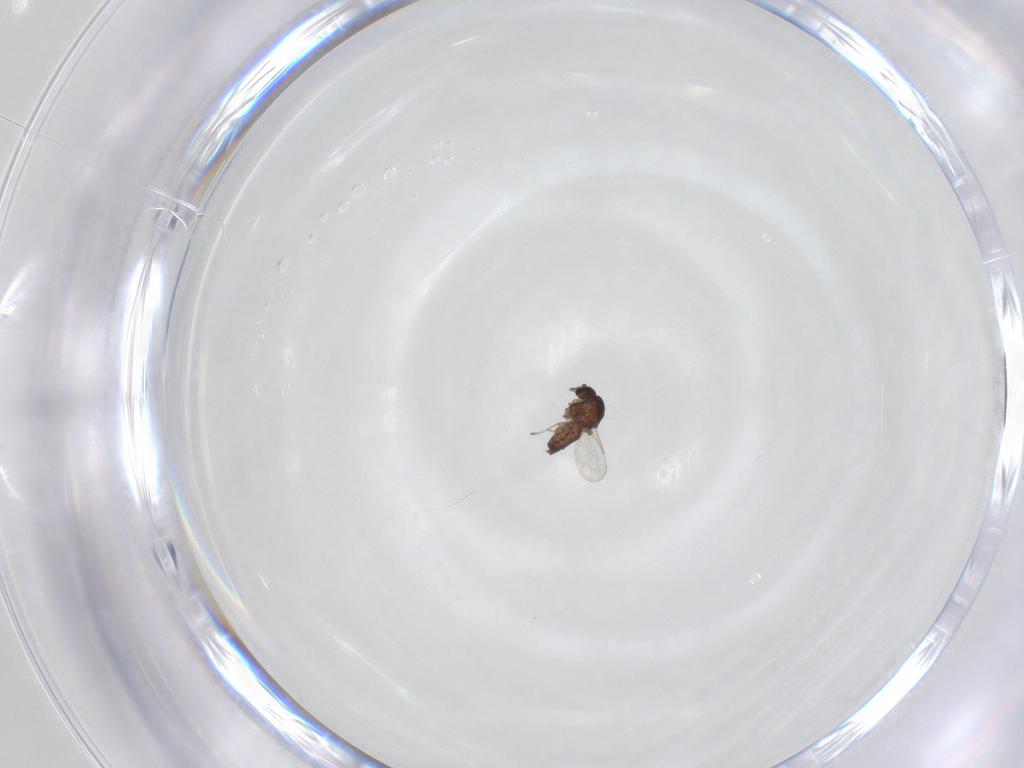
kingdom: Animalia
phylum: Arthropoda
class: Insecta
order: Diptera
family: Ceratopogonidae
